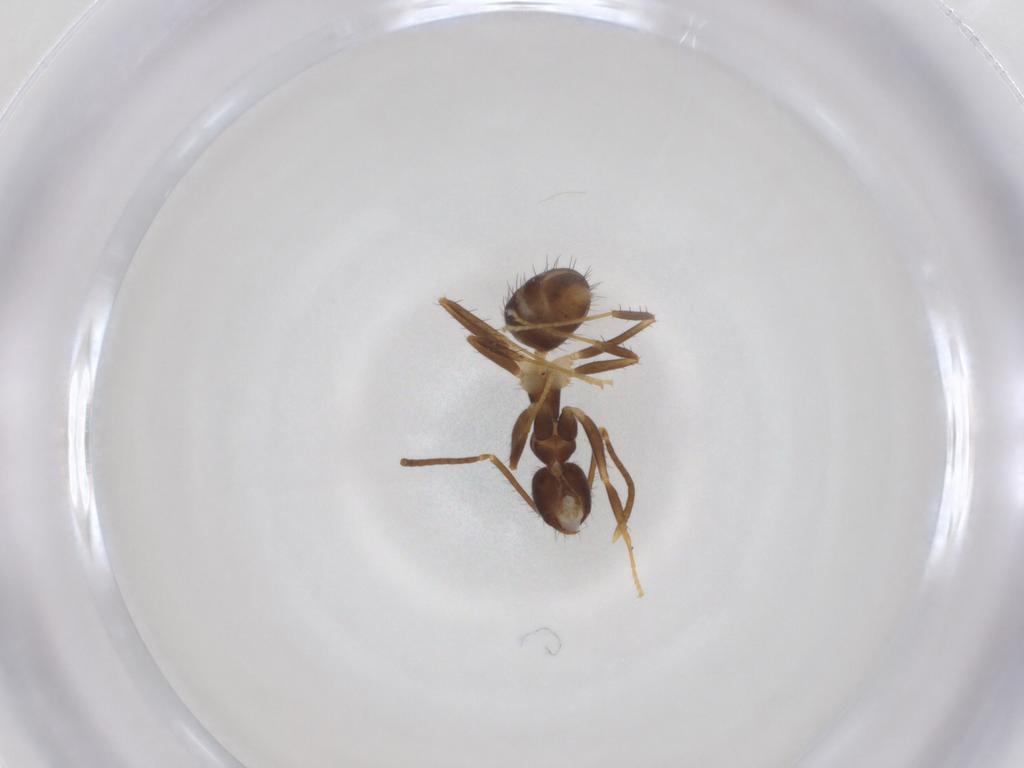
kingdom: Animalia
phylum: Arthropoda
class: Insecta
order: Hymenoptera
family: Formicidae
